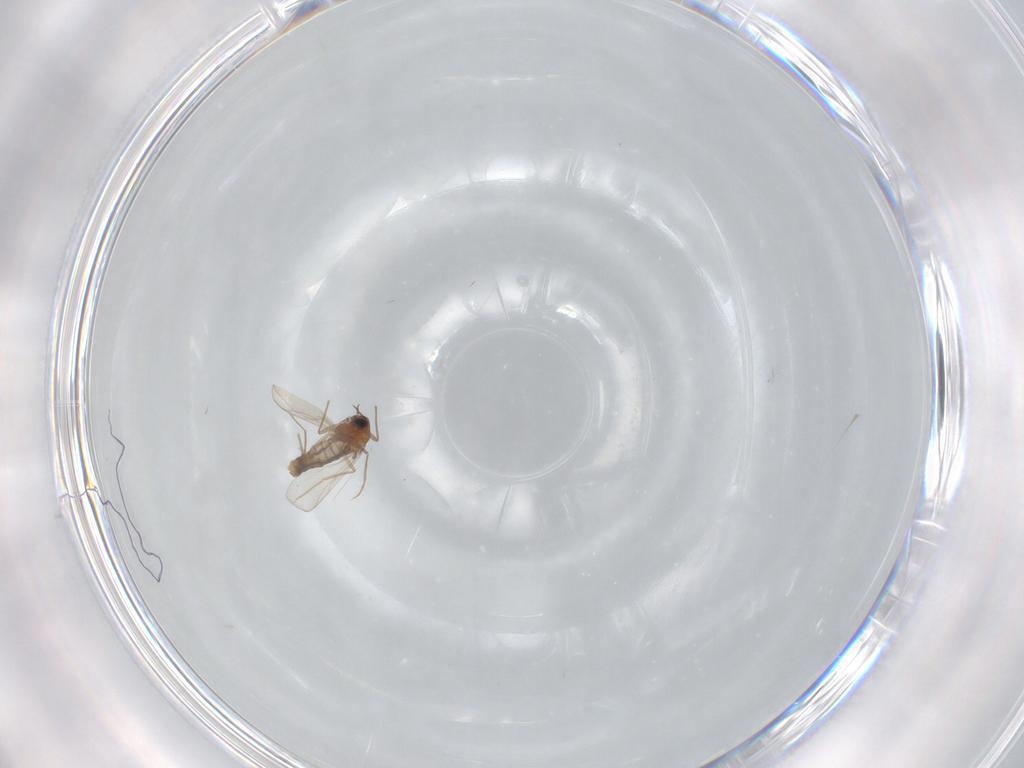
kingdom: Animalia
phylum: Arthropoda
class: Insecta
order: Diptera
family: Chironomidae
